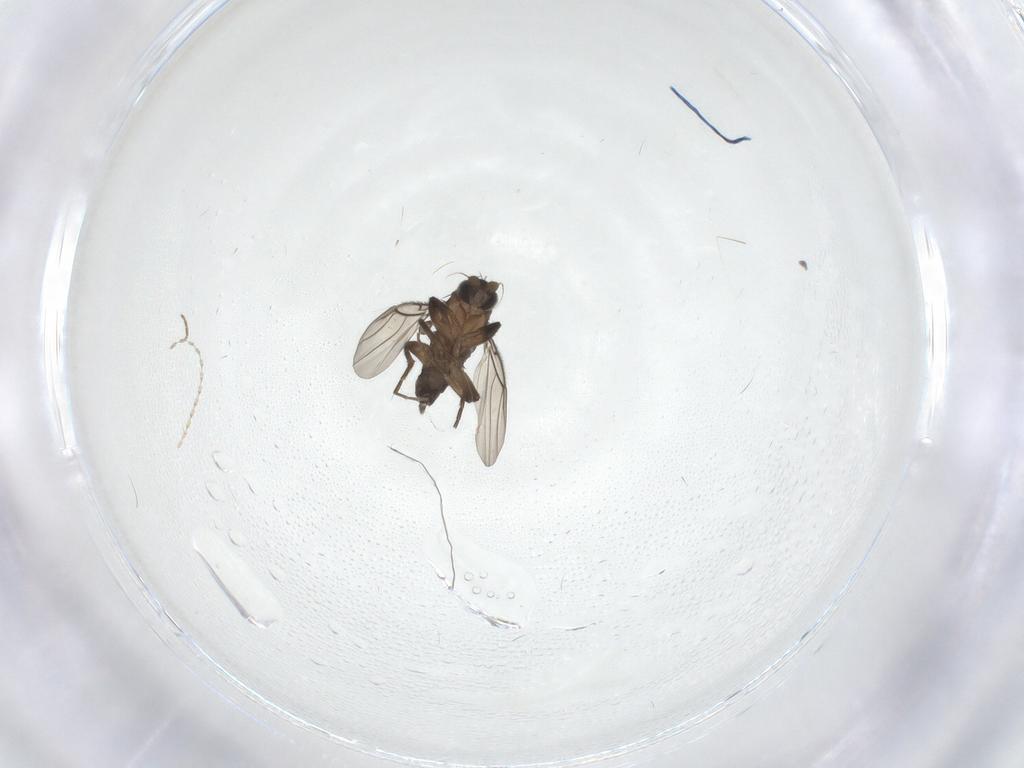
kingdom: Animalia
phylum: Arthropoda
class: Insecta
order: Diptera
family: Phoridae
